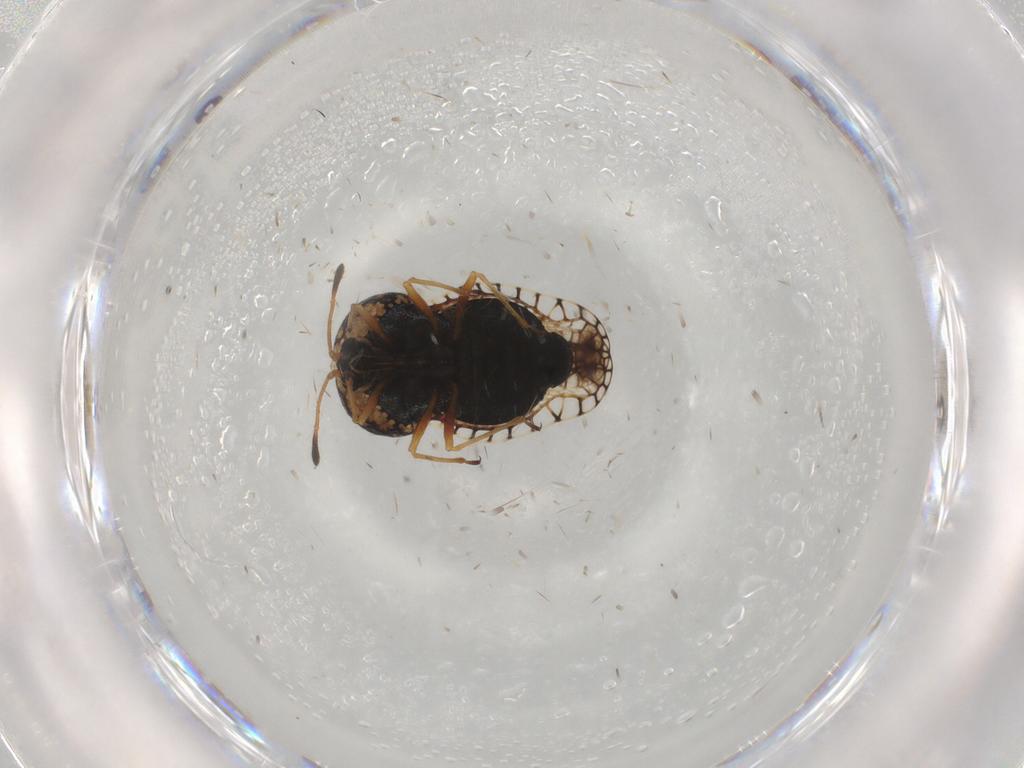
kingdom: Animalia
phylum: Arthropoda
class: Insecta
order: Hemiptera
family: Tingidae
